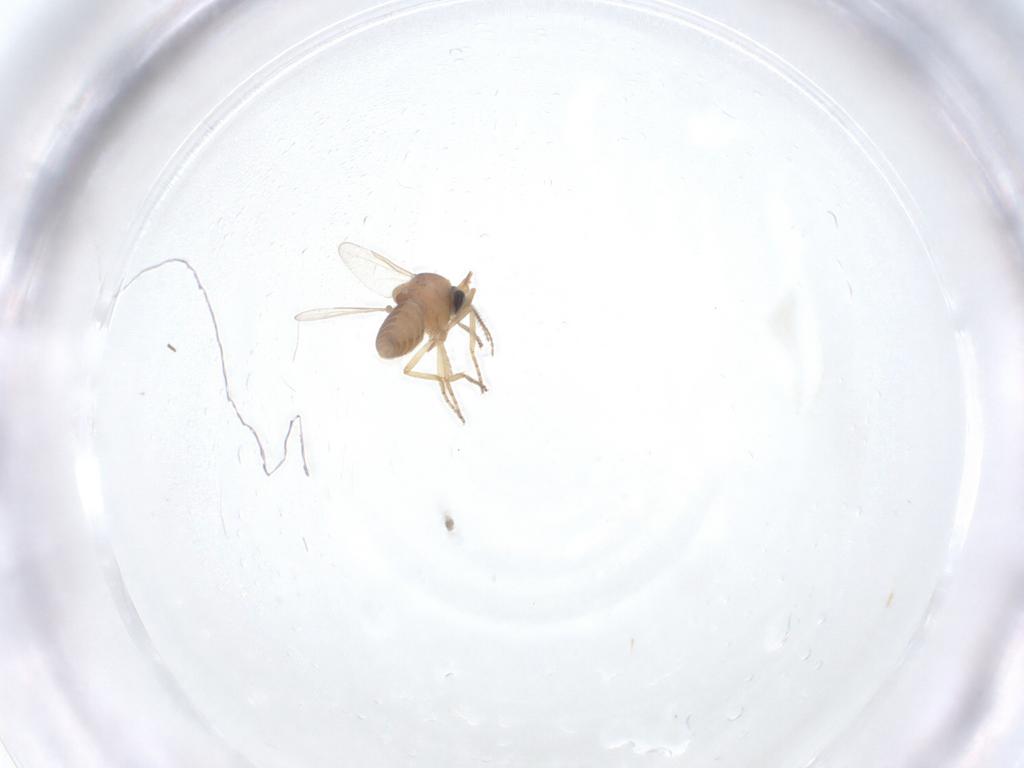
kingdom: Animalia
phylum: Arthropoda
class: Insecta
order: Diptera
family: Ceratopogonidae
